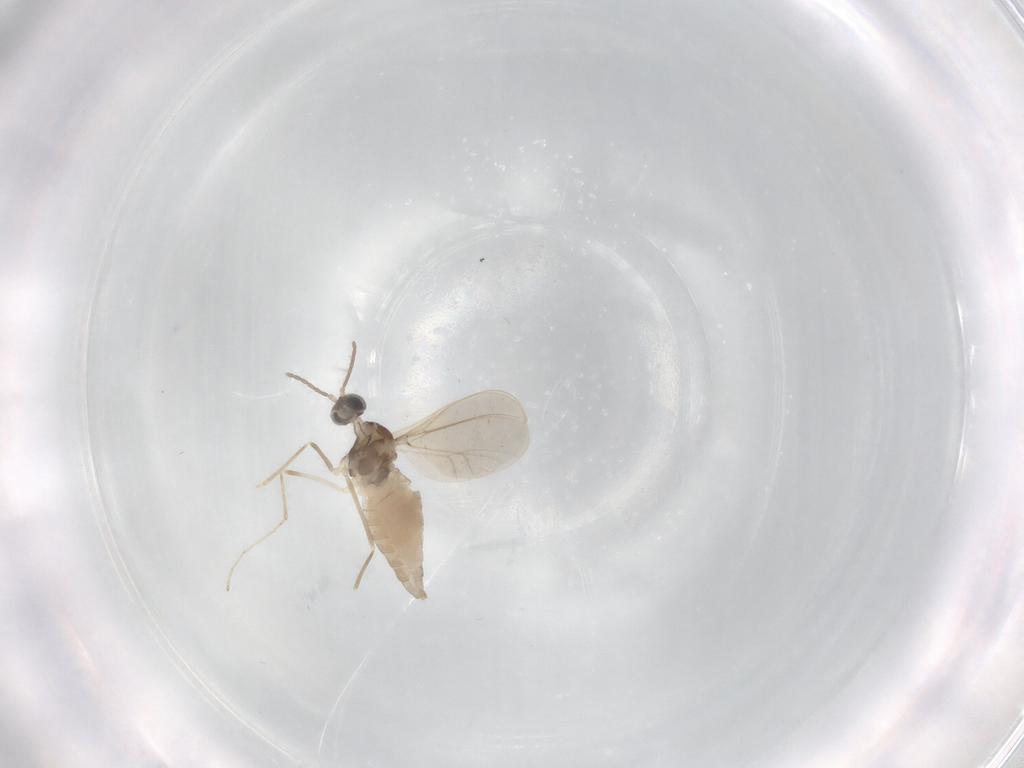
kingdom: Animalia
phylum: Arthropoda
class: Insecta
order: Diptera
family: Cecidomyiidae
